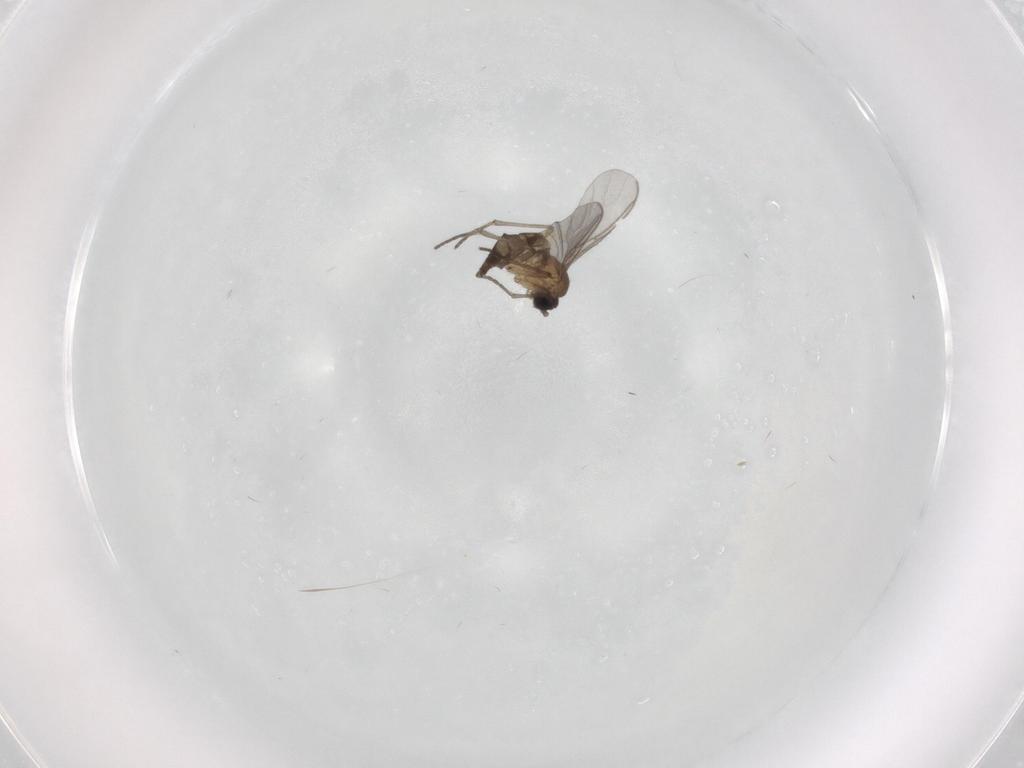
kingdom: Animalia
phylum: Arthropoda
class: Insecta
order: Diptera
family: Sciaridae
